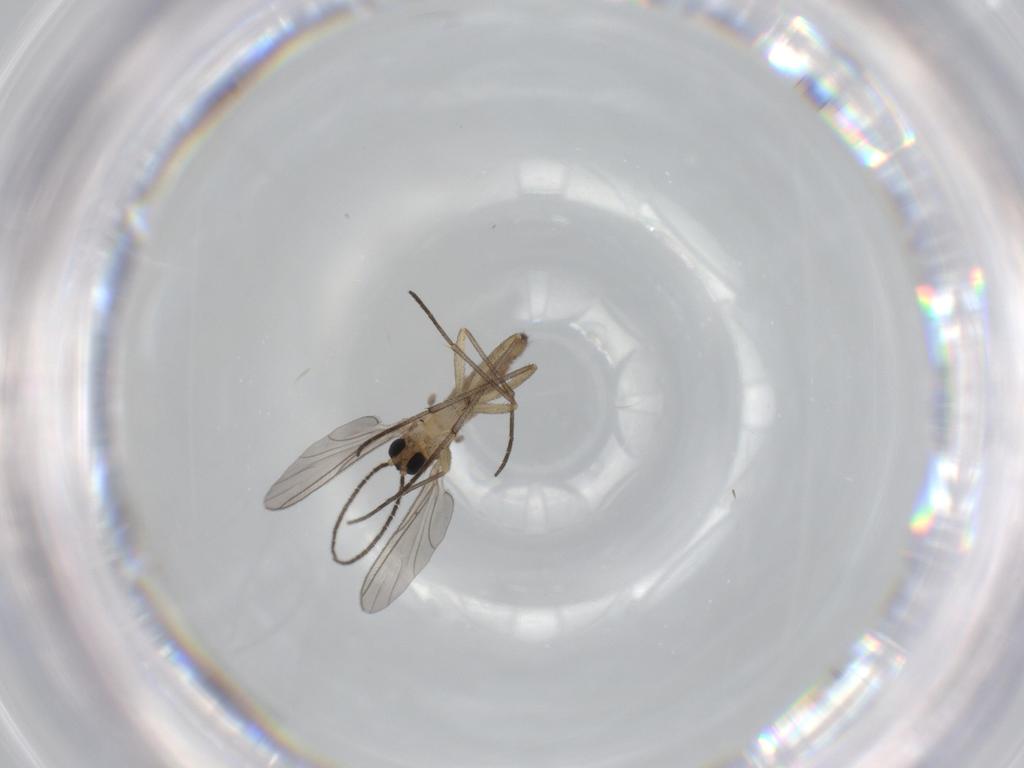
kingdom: Animalia
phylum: Arthropoda
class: Insecta
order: Diptera
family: Sciaridae
